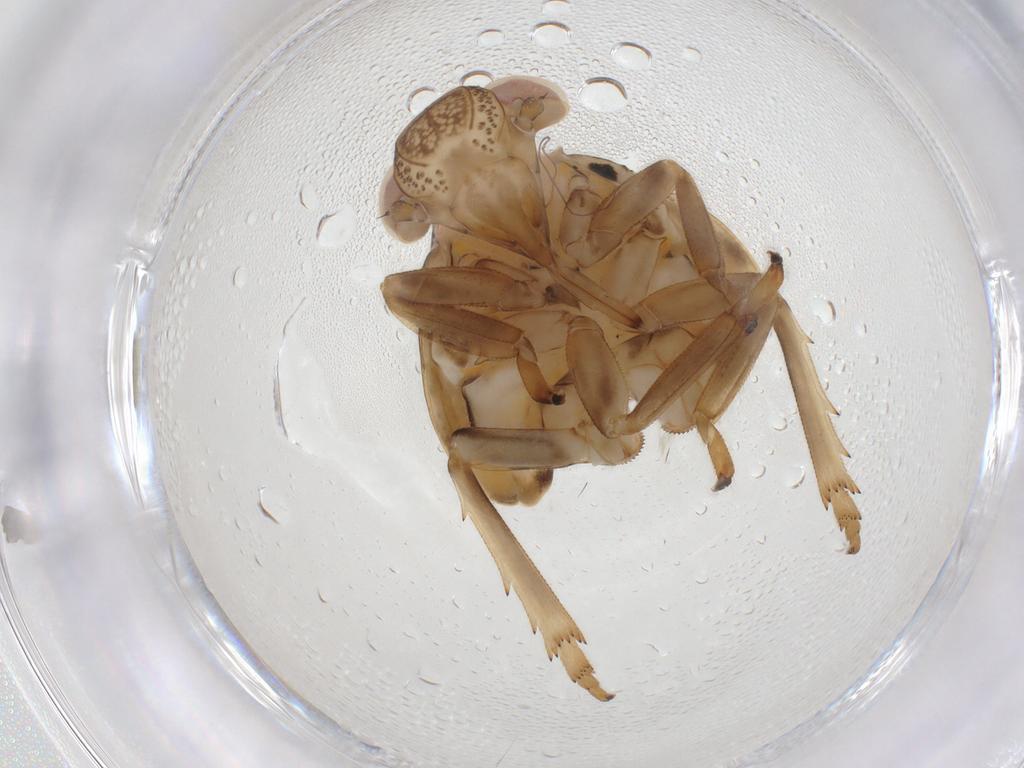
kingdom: Animalia
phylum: Arthropoda
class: Insecta
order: Hemiptera
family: Issidae
